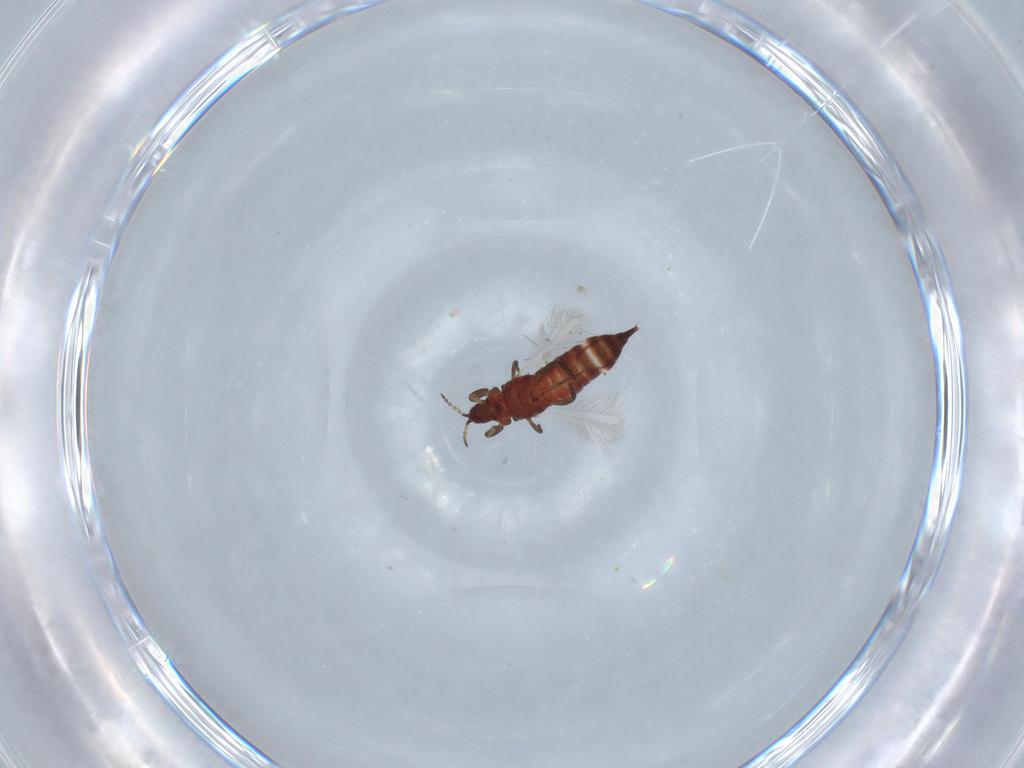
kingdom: Animalia
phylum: Arthropoda
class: Insecta
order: Thysanoptera
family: Phlaeothripidae
